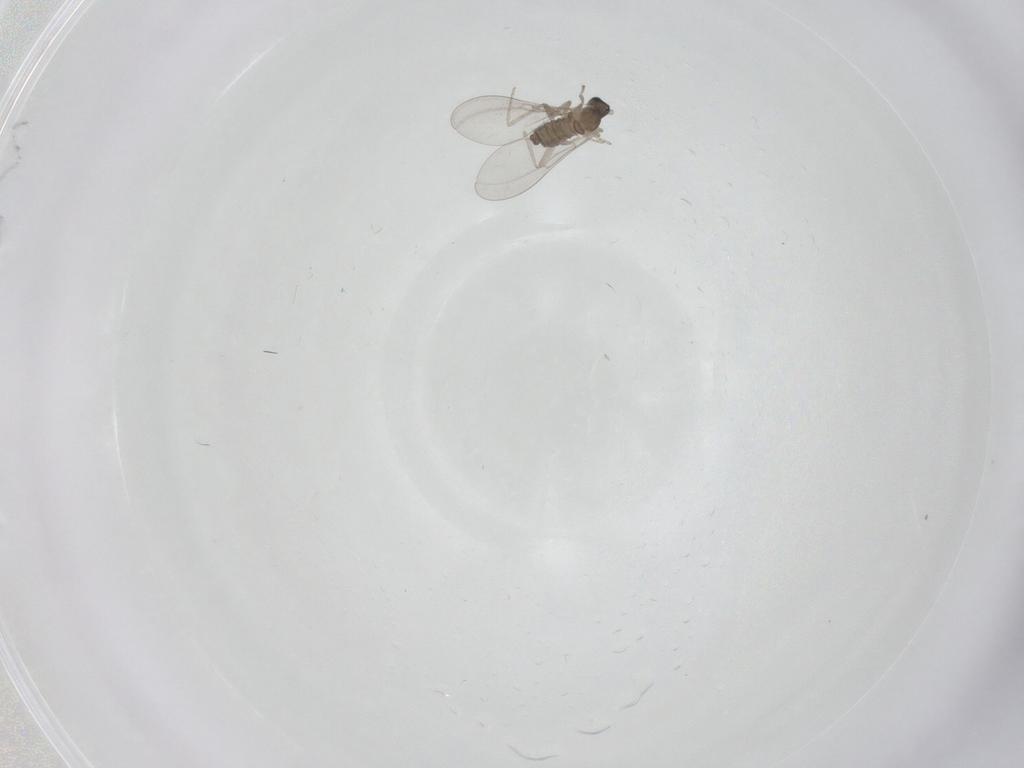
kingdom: Animalia
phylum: Arthropoda
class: Insecta
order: Diptera
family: Cecidomyiidae
